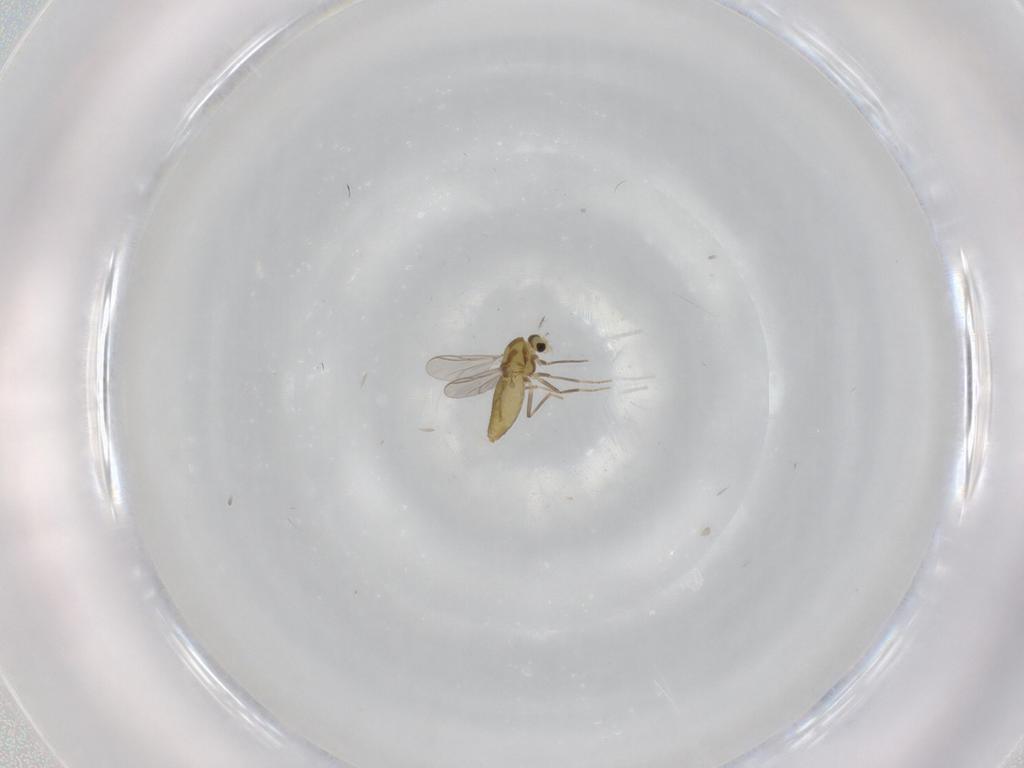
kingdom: Animalia
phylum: Arthropoda
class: Insecta
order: Diptera
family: Chironomidae
